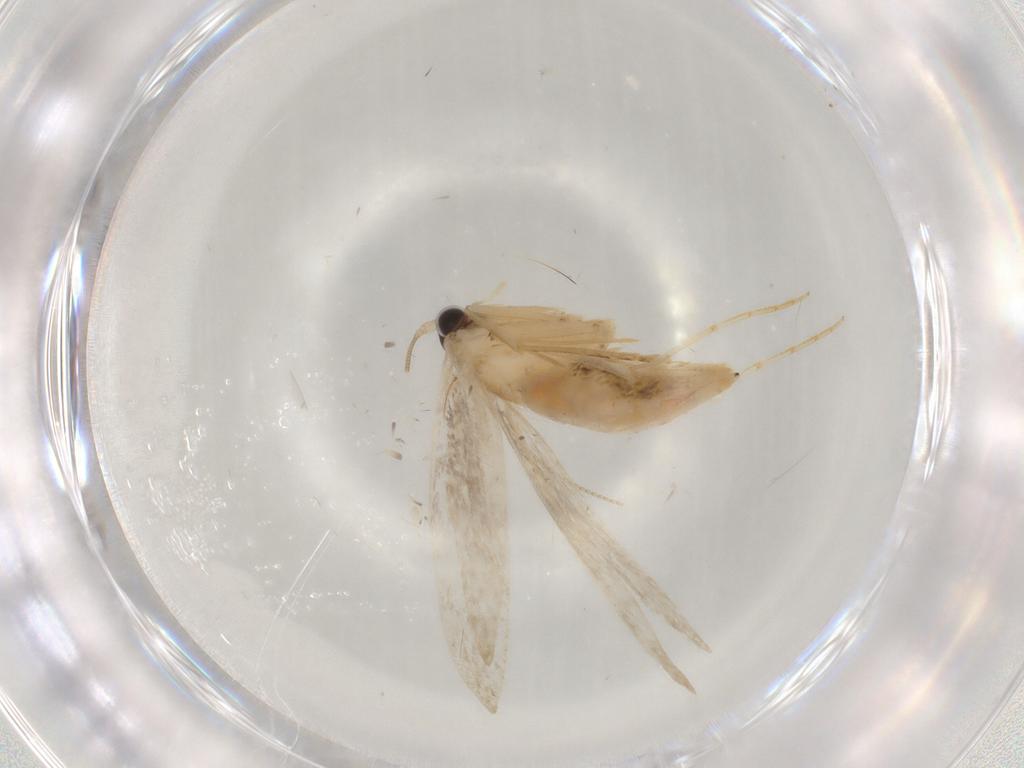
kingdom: Animalia
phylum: Arthropoda
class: Insecta
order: Lepidoptera
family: Tineidae
